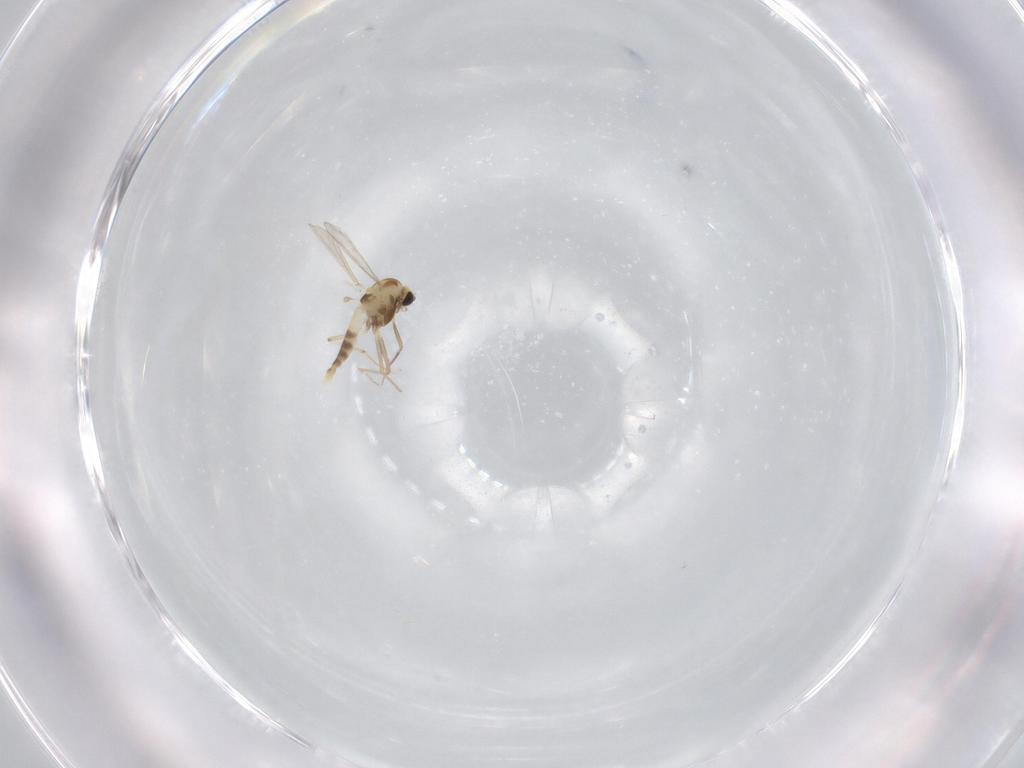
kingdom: Animalia
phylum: Arthropoda
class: Insecta
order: Diptera
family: Chironomidae
